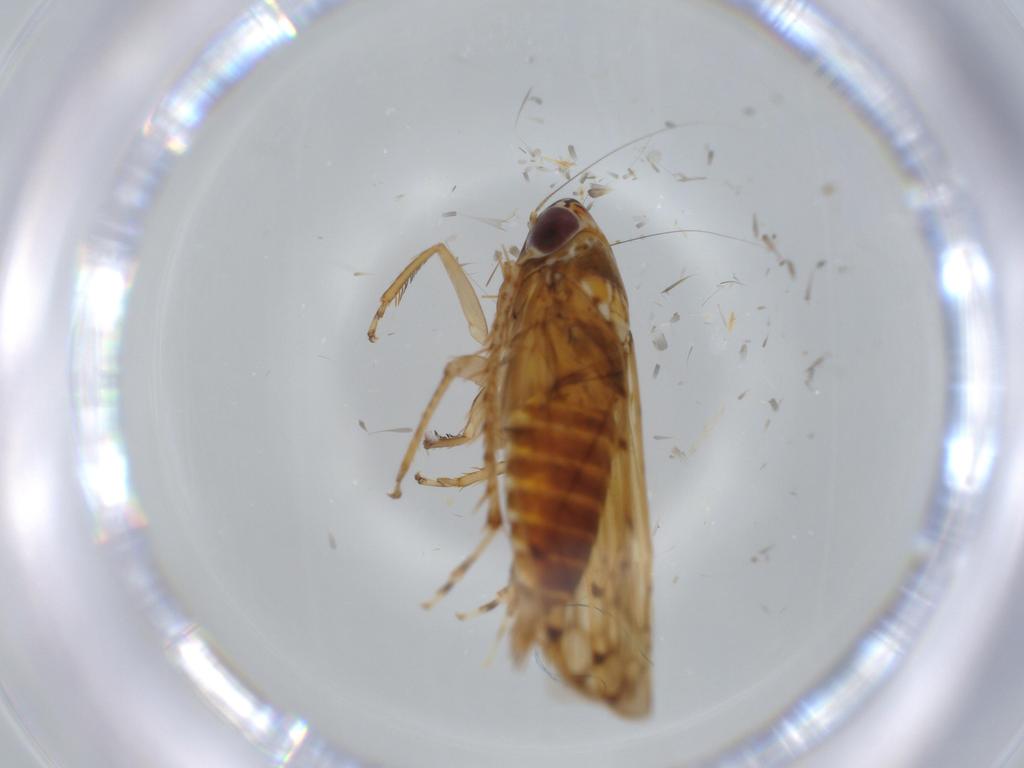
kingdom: Animalia
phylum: Arthropoda
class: Insecta
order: Hemiptera
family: Cicadellidae
